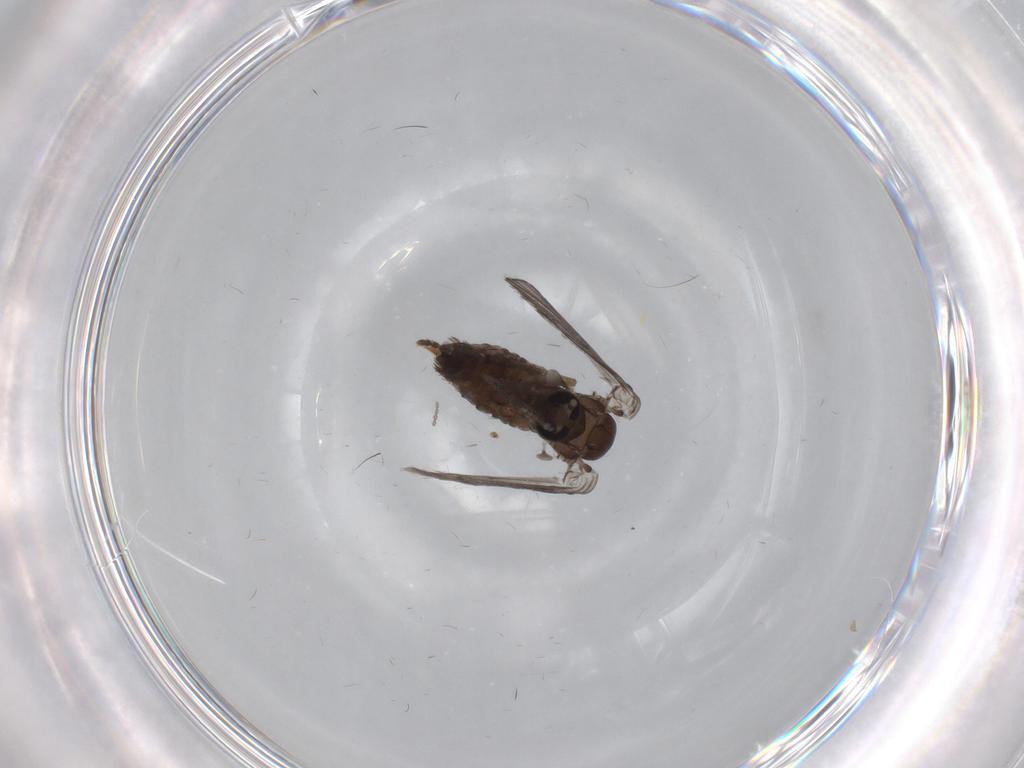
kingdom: Animalia
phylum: Arthropoda
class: Insecta
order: Diptera
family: Psychodidae
